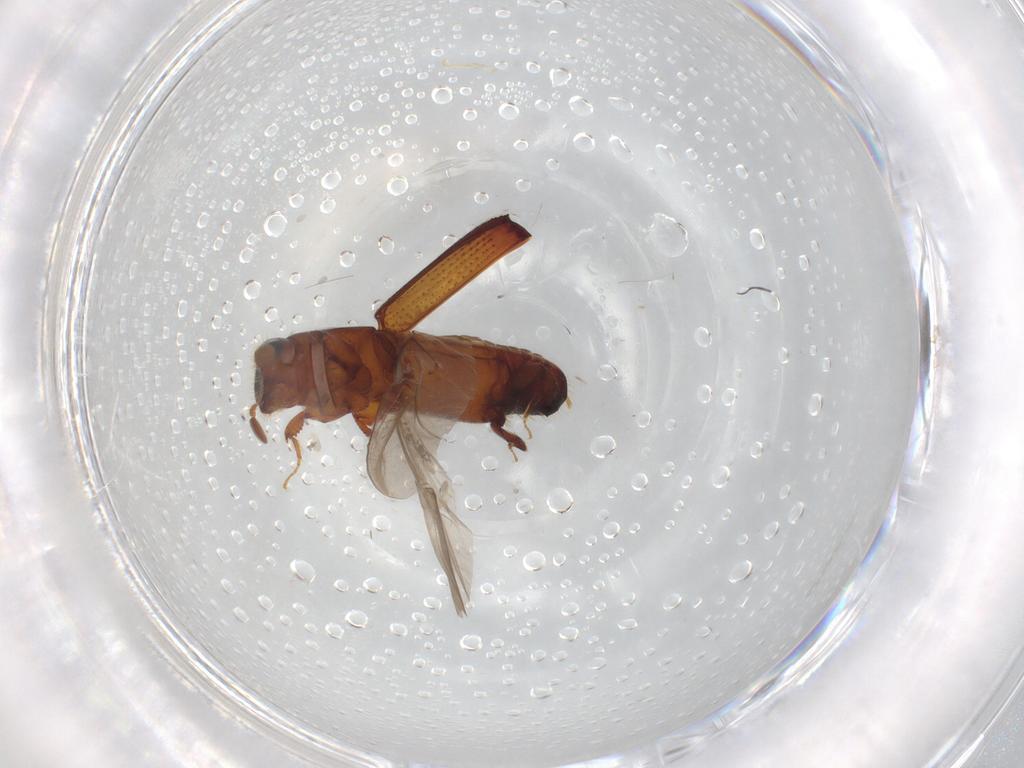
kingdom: Animalia
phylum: Arthropoda
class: Insecta
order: Coleoptera
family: Curculionidae
